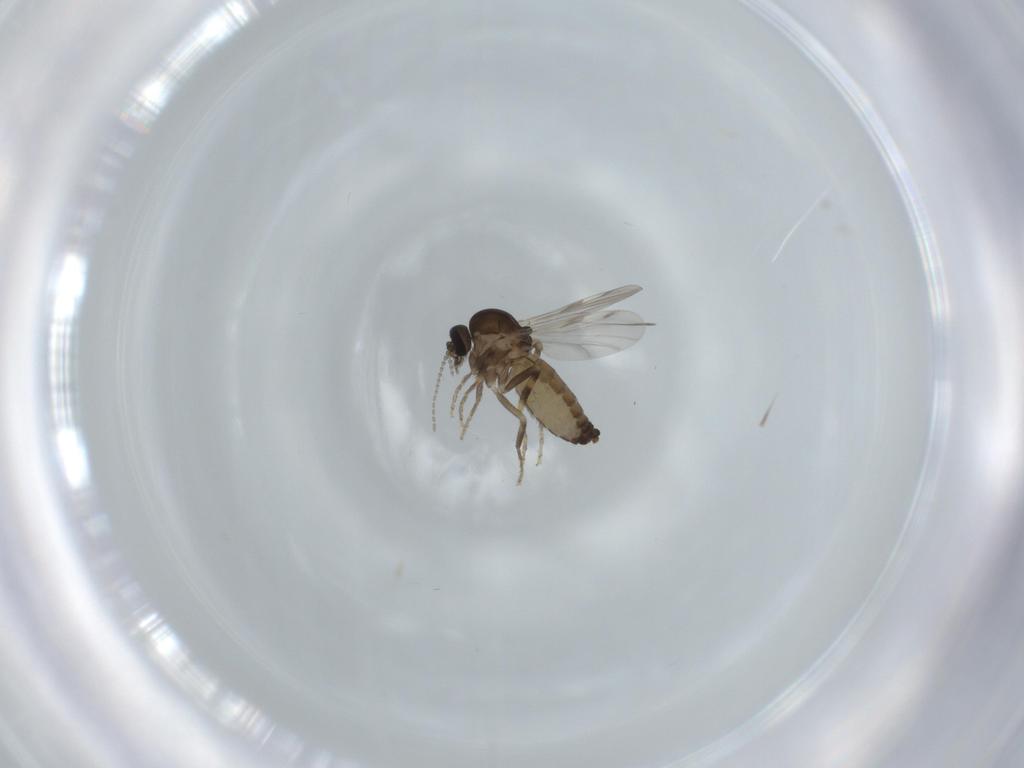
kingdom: Animalia
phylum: Arthropoda
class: Insecta
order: Diptera
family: Ceratopogonidae
